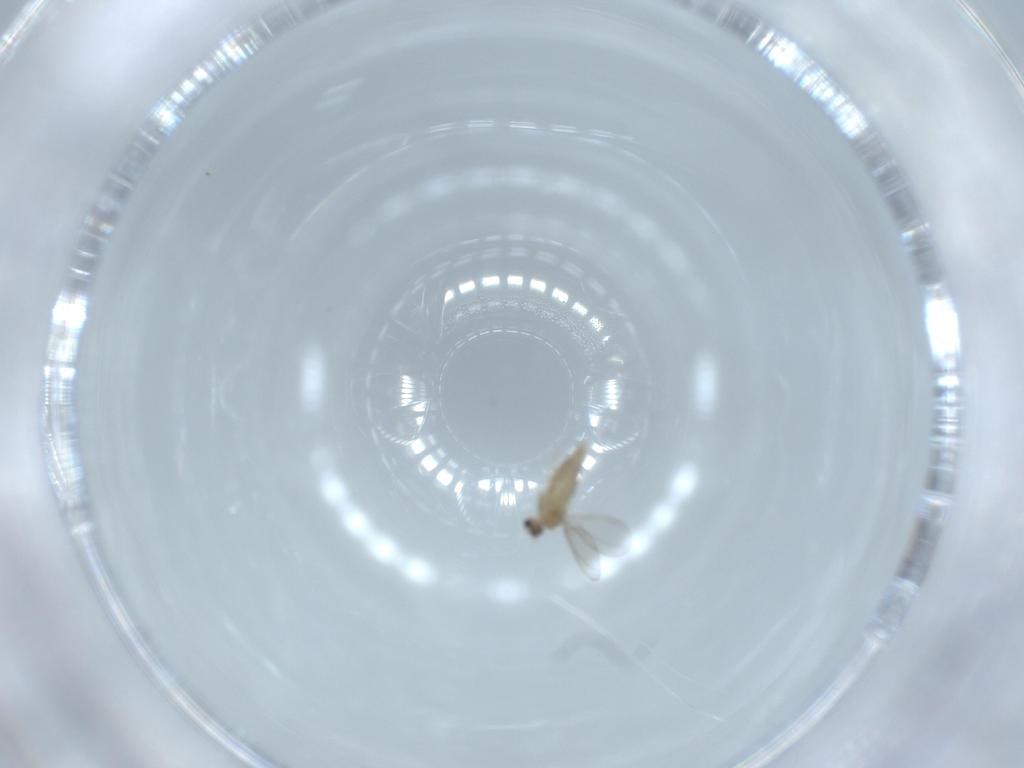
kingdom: Animalia
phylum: Arthropoda
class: Insecta
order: Diptera
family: Cecidomyiidae
